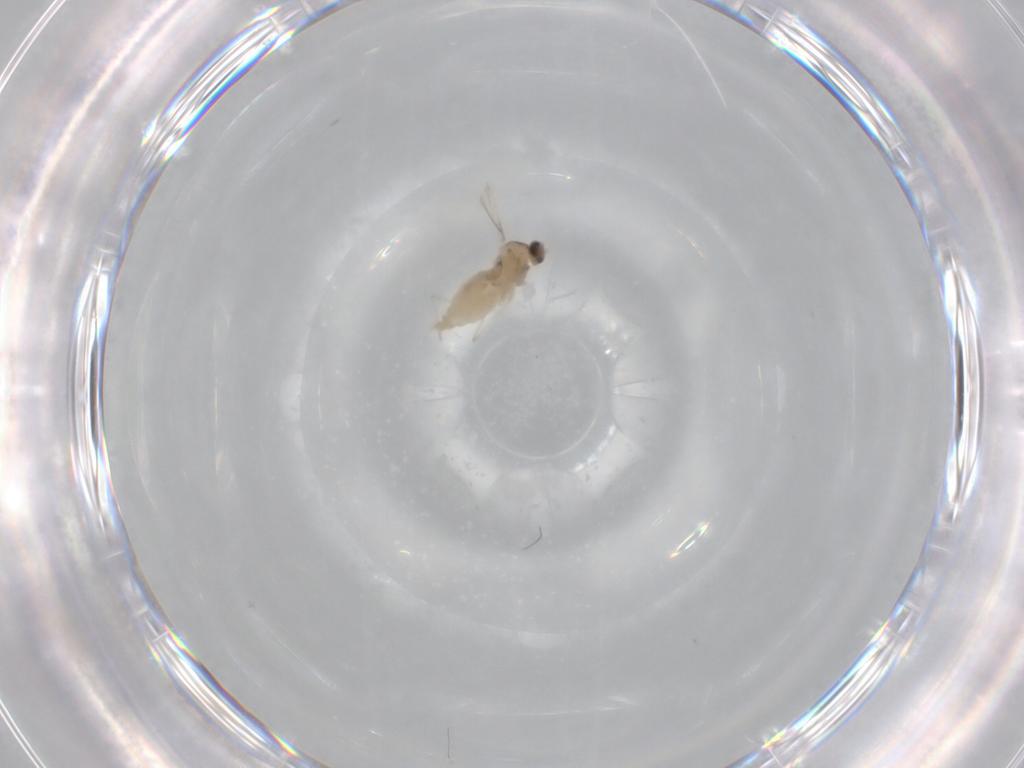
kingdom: Animalia
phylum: Arthropoda
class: Insecta
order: Diptera
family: Cecidomyiidae
